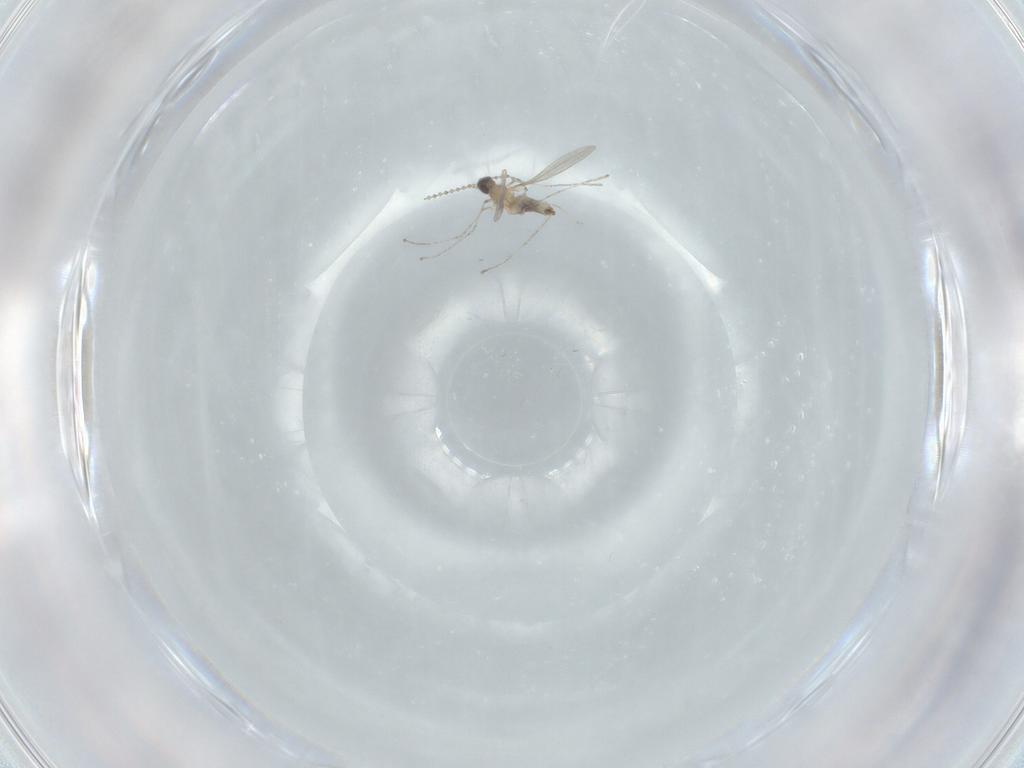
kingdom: Animalia
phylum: Arthropoda
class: Insecta
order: Diptera
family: Cecidomyiidae
